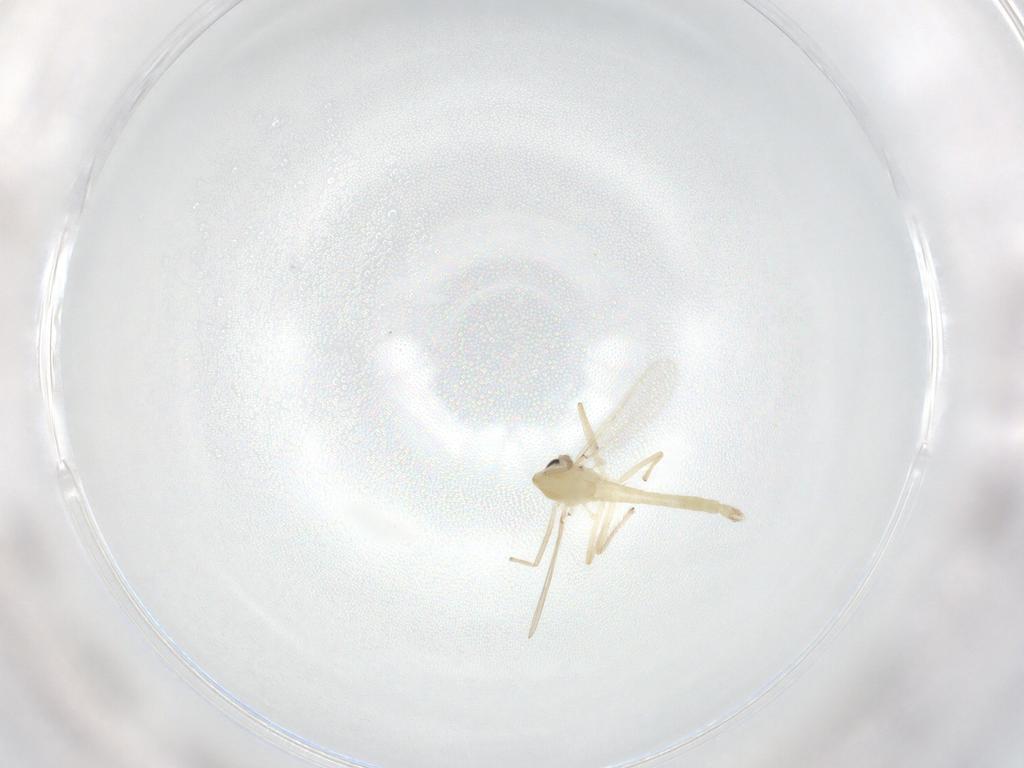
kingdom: Animalia
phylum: Arthropoda
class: Insecta
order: Diptera
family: Chironomidae
